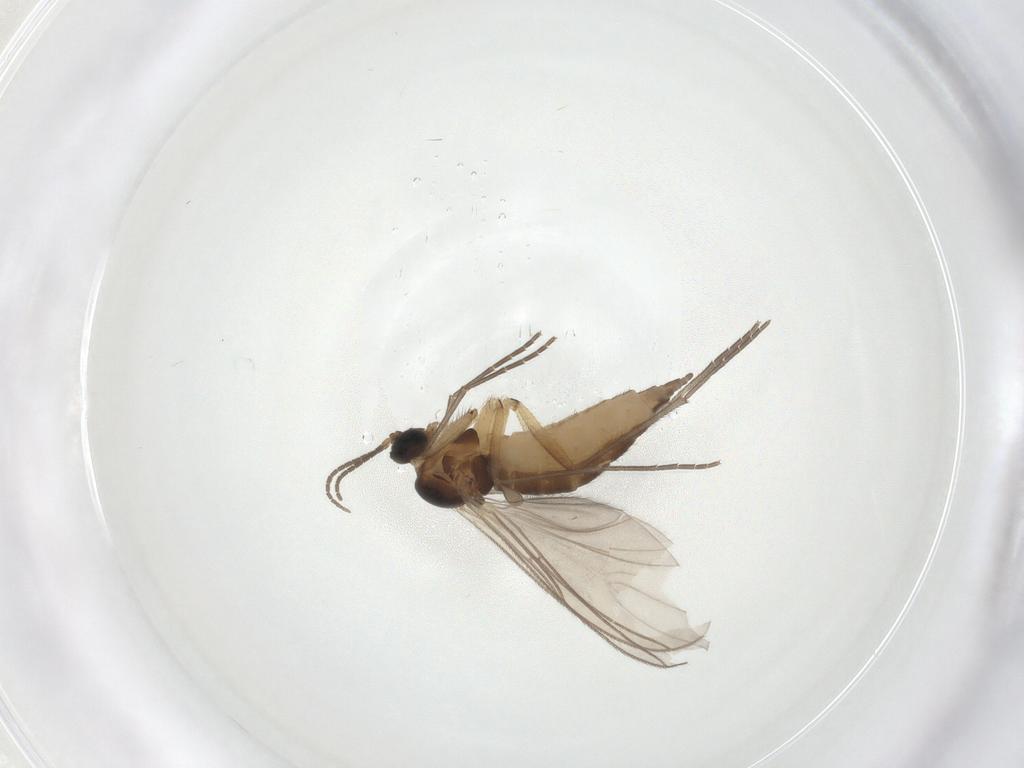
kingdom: Animalia
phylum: Arthropoda
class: Insecta
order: Diptera
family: Sciaridae
